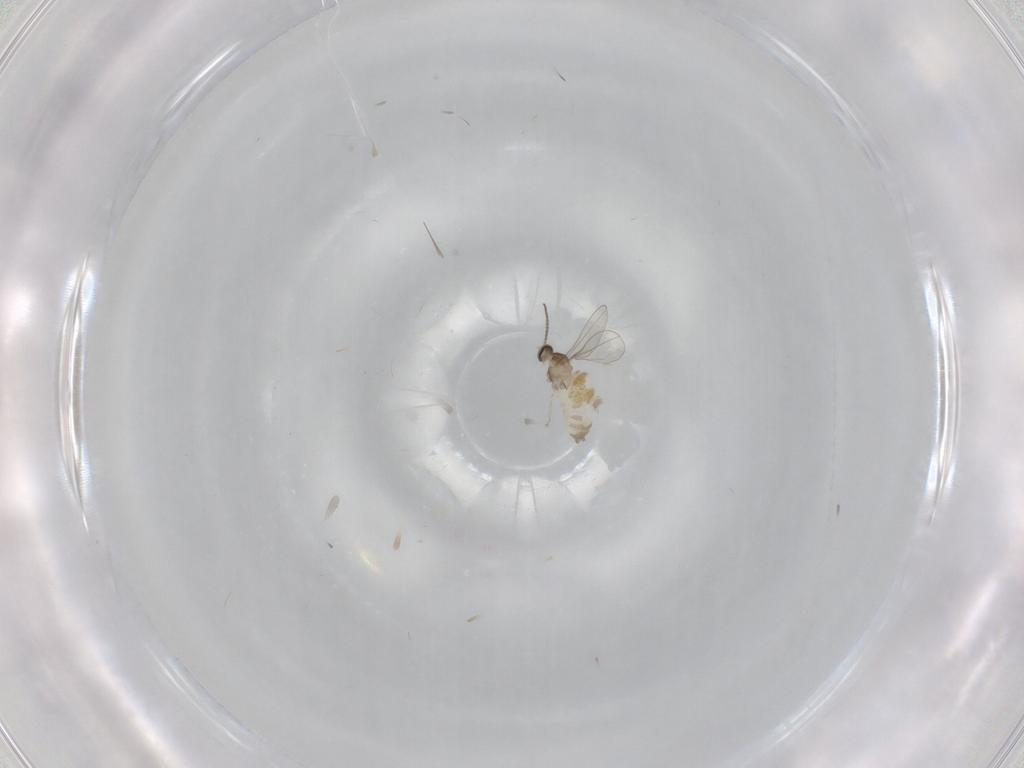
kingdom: Animalia
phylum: Arthropoda
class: Insecta
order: Diptera
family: Cecidomyiidae
